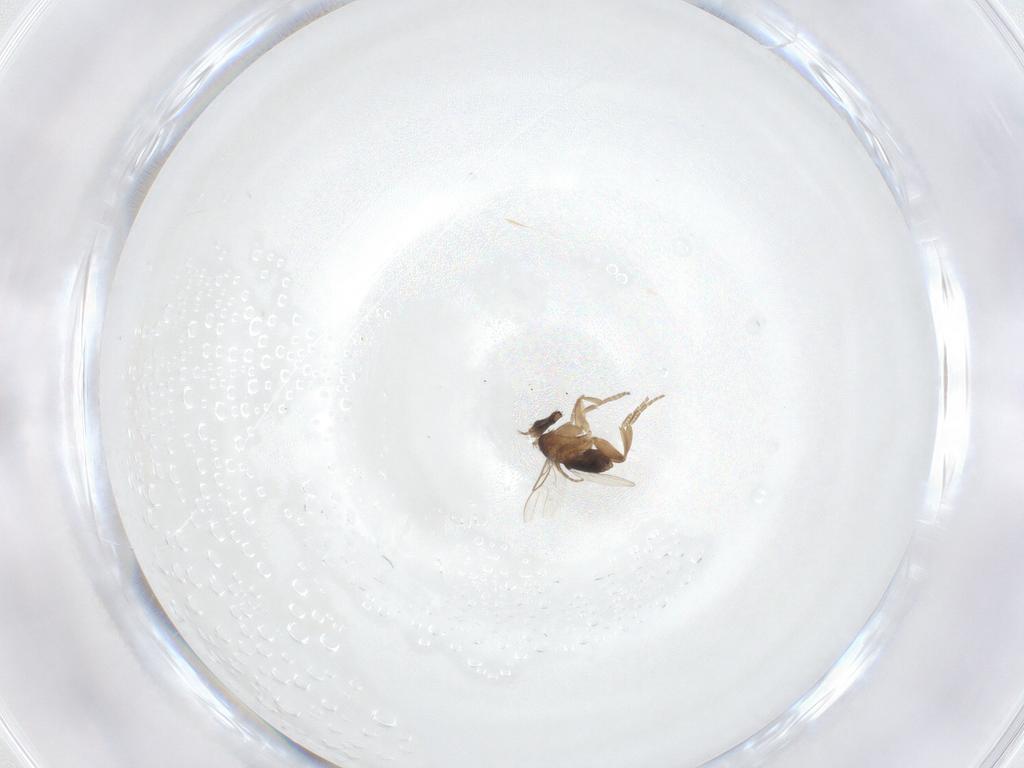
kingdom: Animalia
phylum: Arthropoda
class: Insecta
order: Diptera
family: Phoridae
